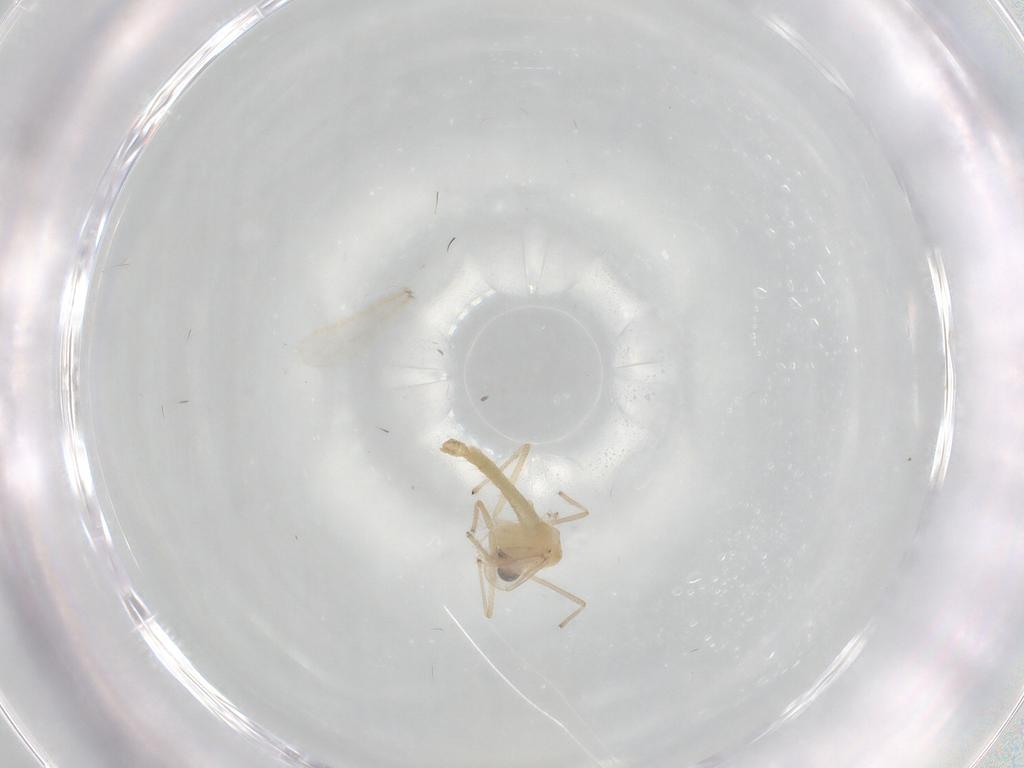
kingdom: Animalia
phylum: Arthropoda
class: Insecta
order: Diptera
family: Chironomidae
